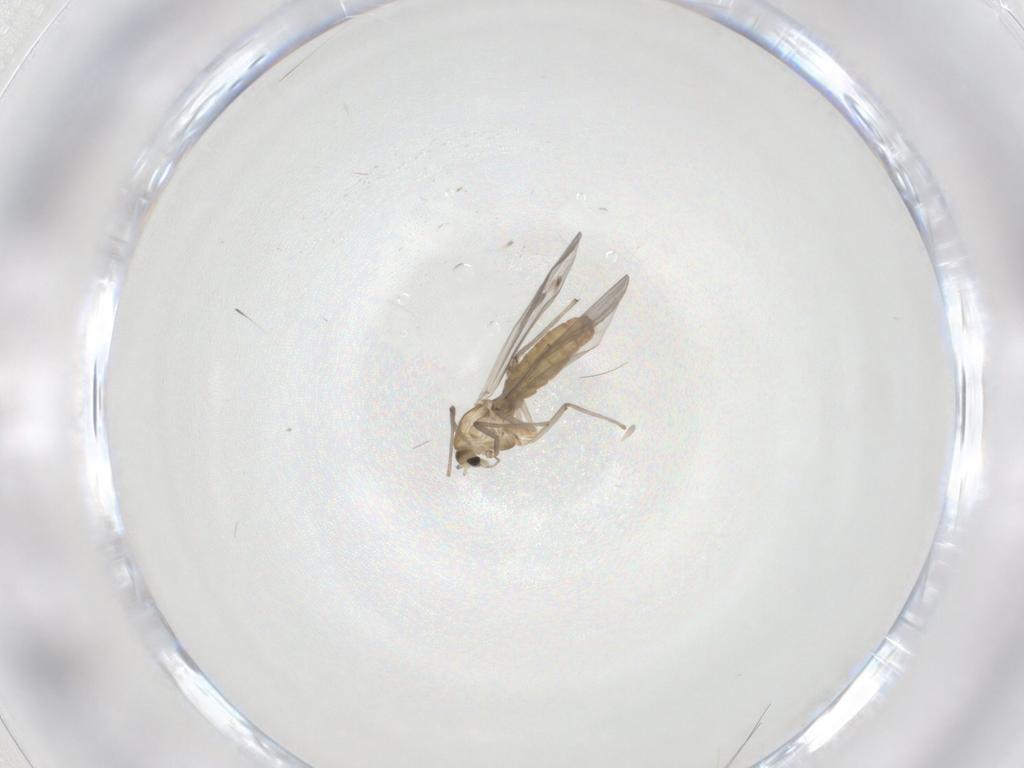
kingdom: Animalia
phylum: Arthropoda
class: Insecta
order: Diptera
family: Chironomidae
